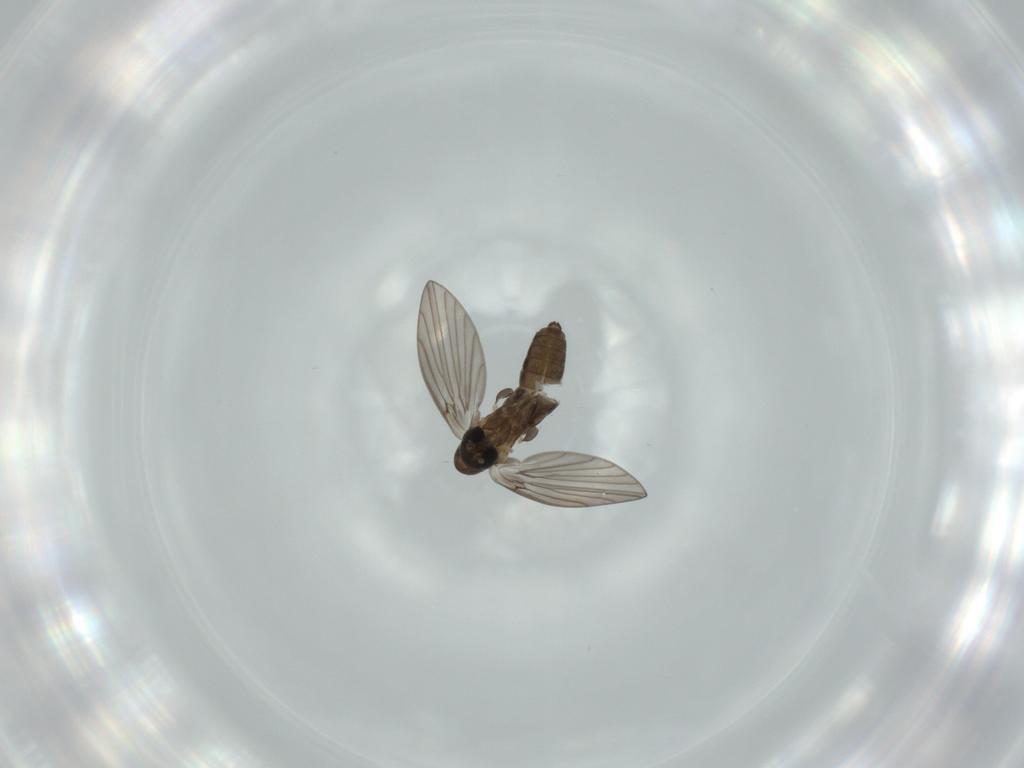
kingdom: Animalia
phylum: Arthropoda
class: Insecta
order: Diptera
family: Psychodidae
